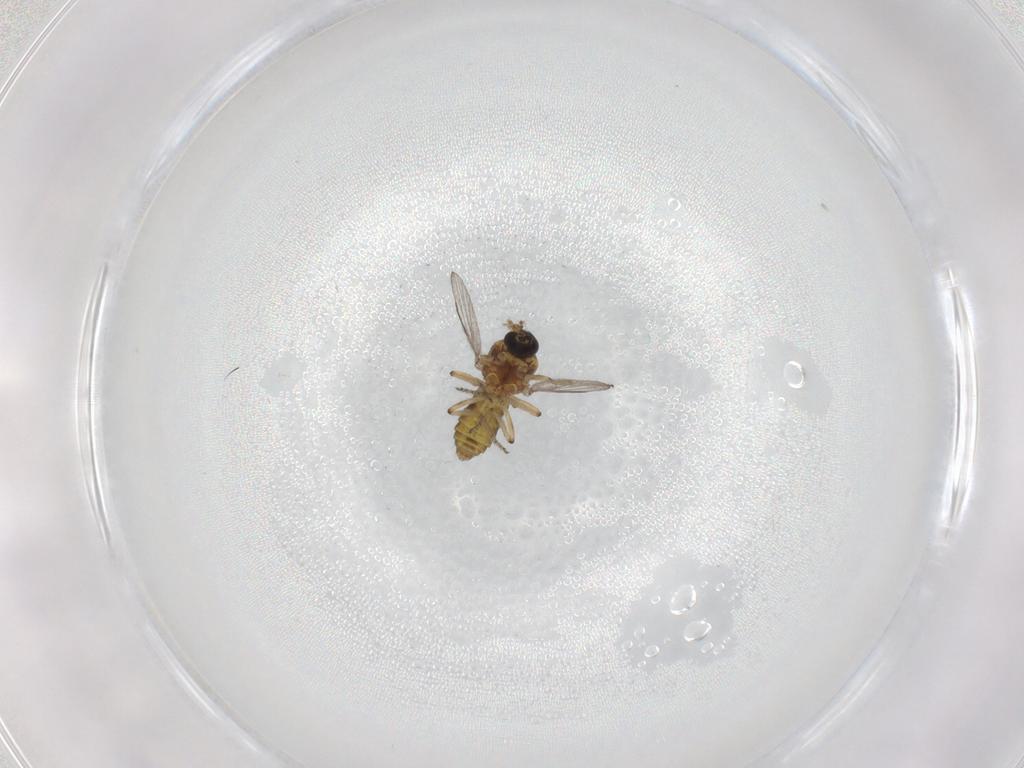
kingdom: Animalia
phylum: Arthropoda
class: Insecta
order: Diptera
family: Ceratopogonidae
